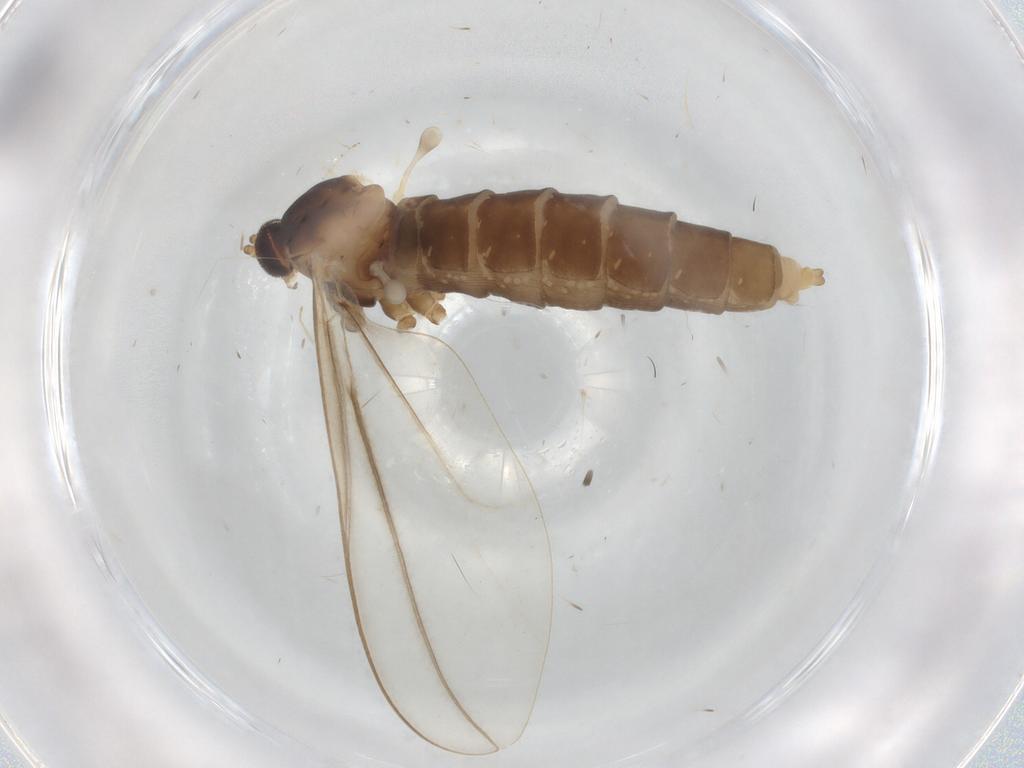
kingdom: Animalia
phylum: Arthropoda
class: Insecta
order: Diptera
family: Cecidomyiidae
